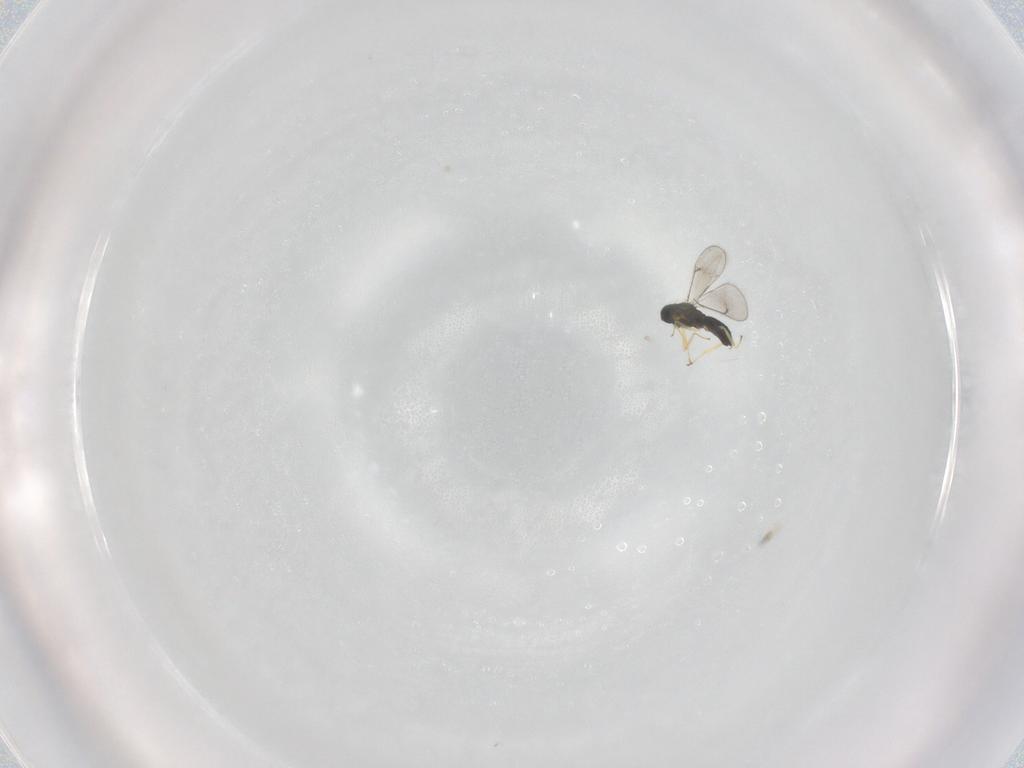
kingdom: Animalia
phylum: Arthropoda
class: Insecta
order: Hymenoptera
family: Eulophidae
